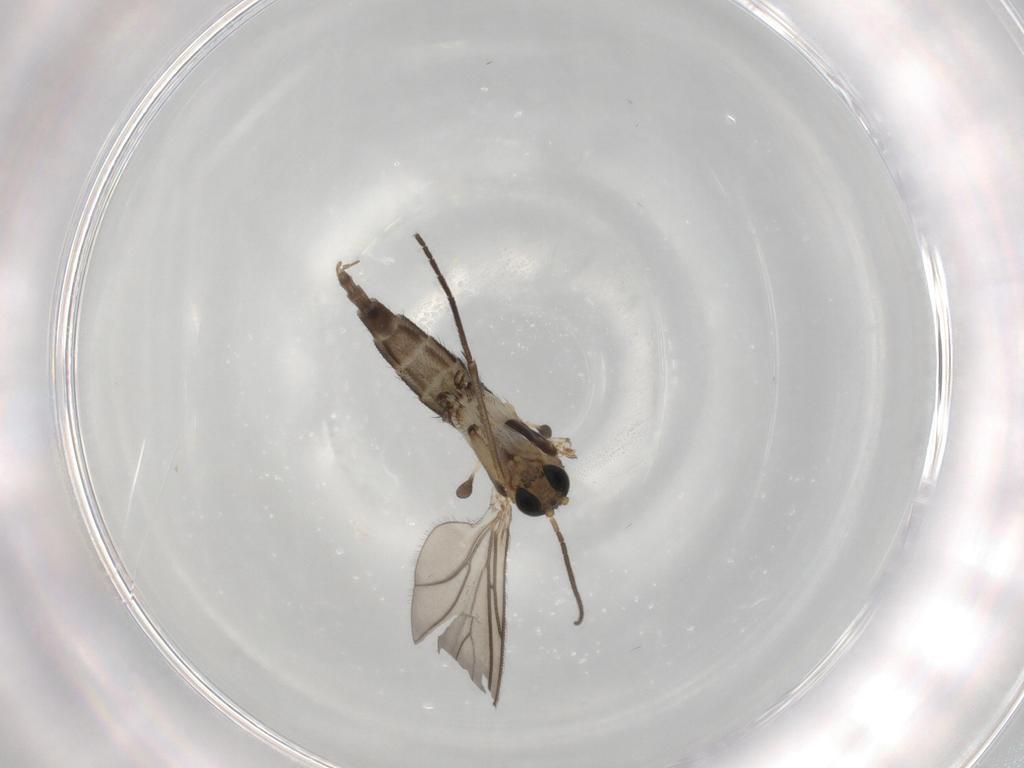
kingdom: Animalia
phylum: Arthropoda
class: Insecta
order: Diptera
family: Sciaridae
